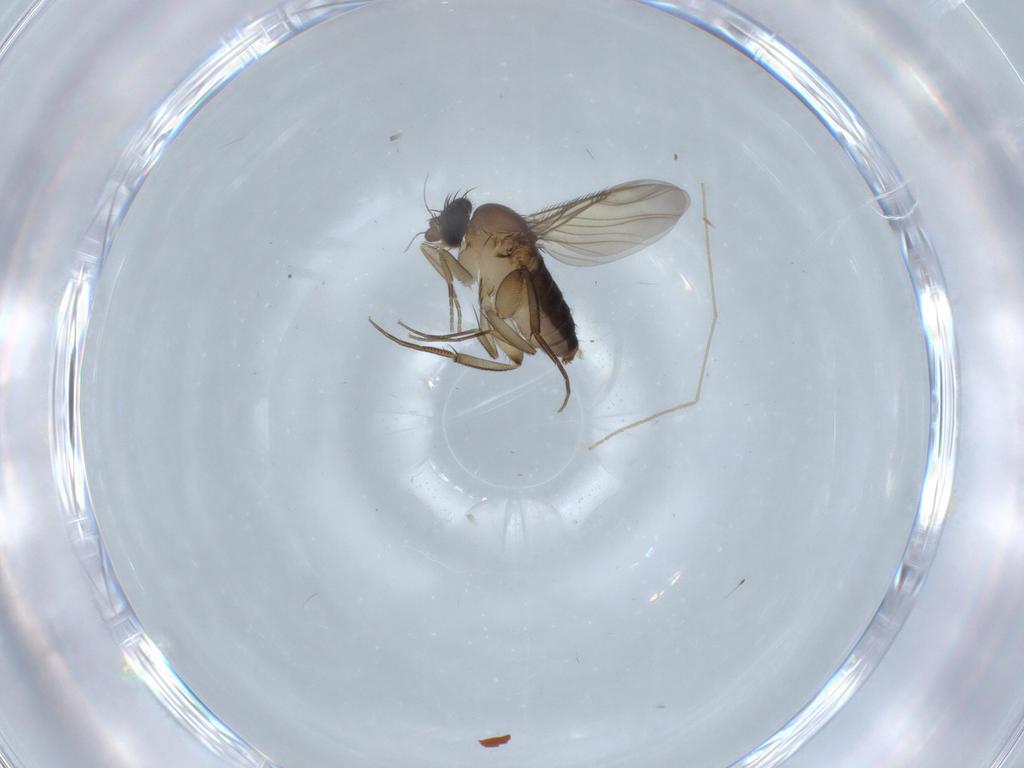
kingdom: Animalia
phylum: Arthropoda
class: Insecta
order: Diptera
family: Phoridae
